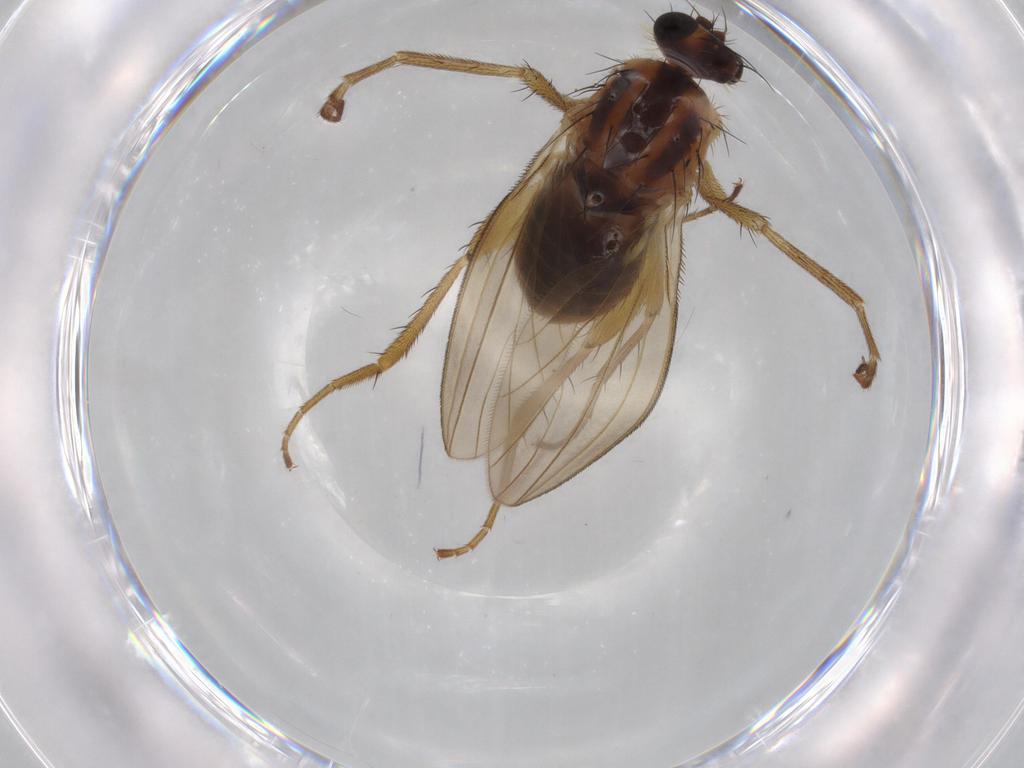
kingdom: Animalia
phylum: Arthropoda
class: Insecta
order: Diptera
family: Lonchopteridae
